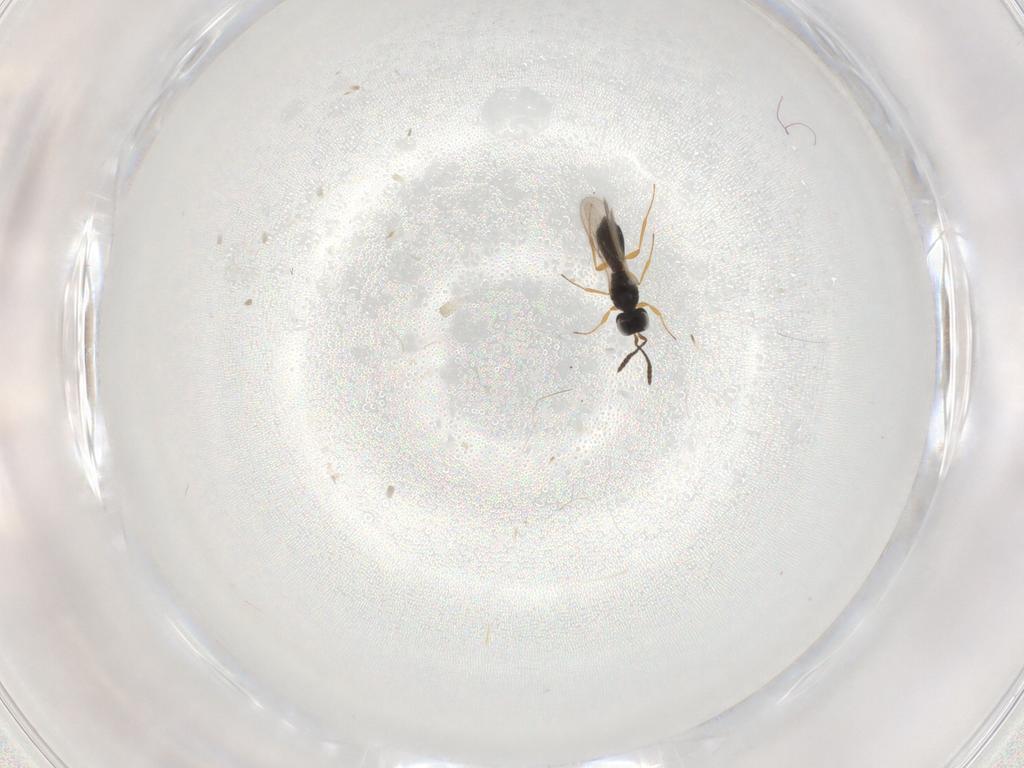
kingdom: Animalia
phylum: Arthropoda
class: Insecta
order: Hymenoptera
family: Scelionidae
